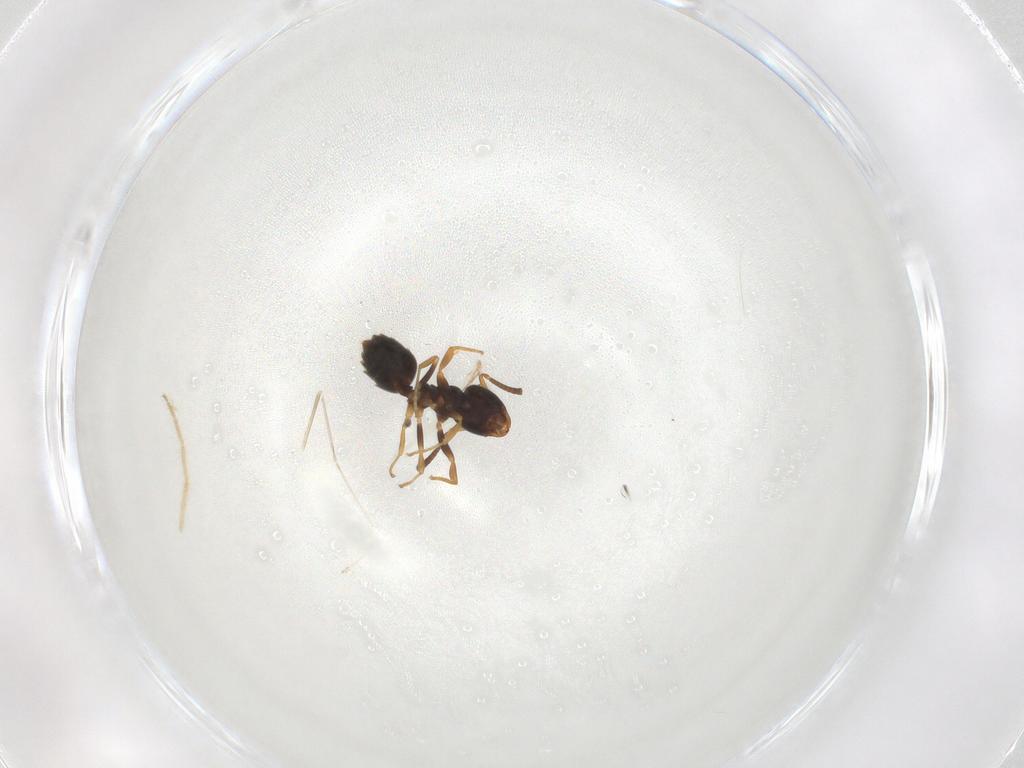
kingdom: Animalia
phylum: Arthropoda
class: Insecta
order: Hymenoptera
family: Formicidae
